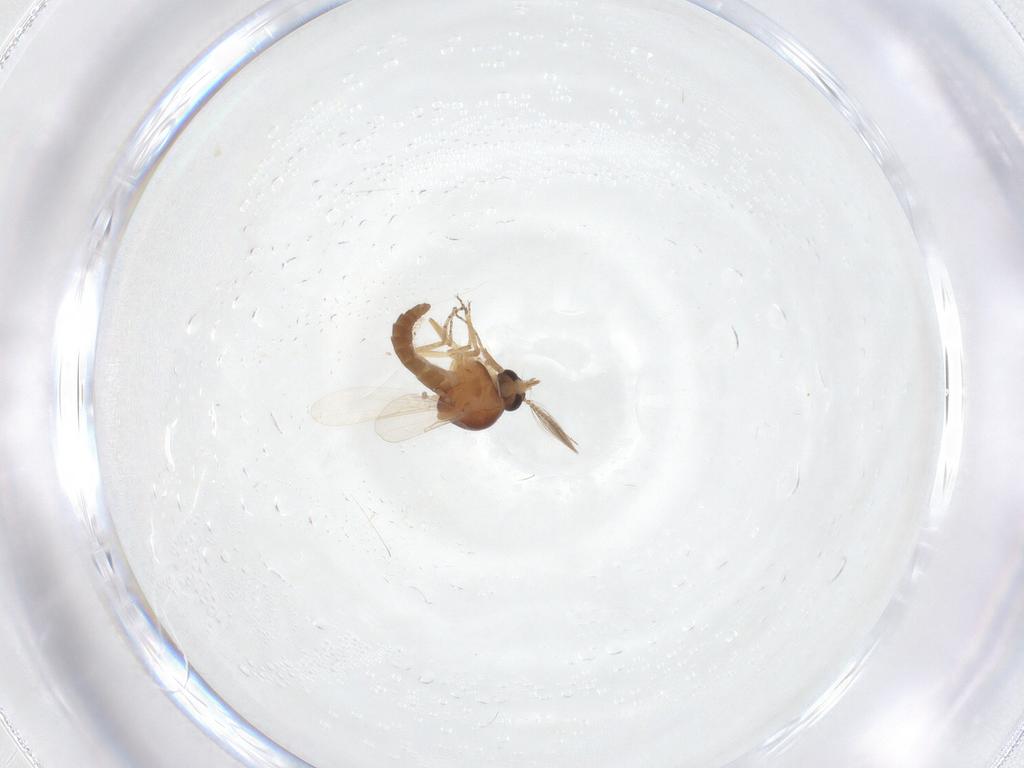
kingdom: Animalia
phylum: Arthropoda
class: Insecta
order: Diptera
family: Ceratopogonidae
